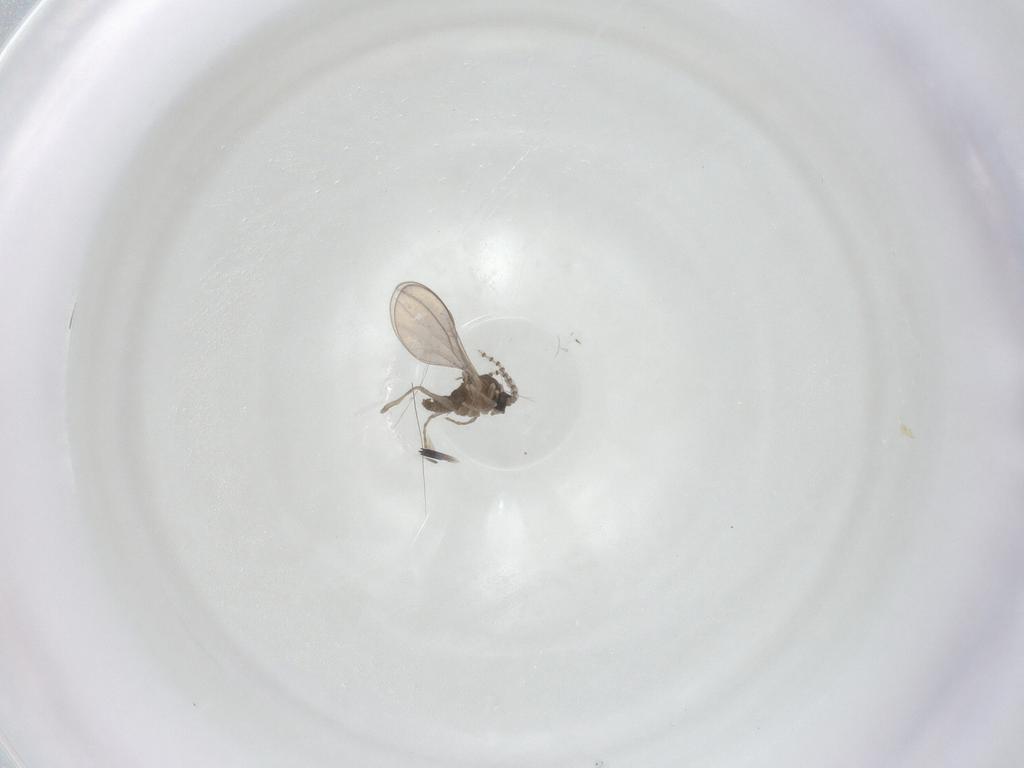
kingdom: Animalia
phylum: Arthropoda
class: Insecta
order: Diptera
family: Cecidomyiidae
